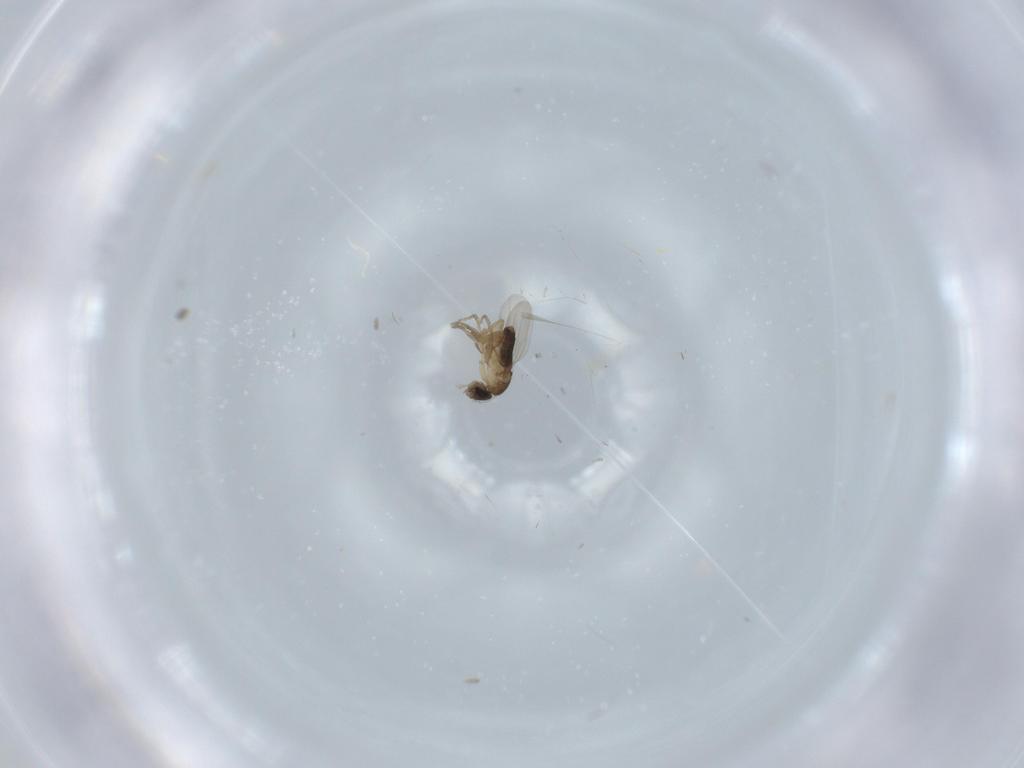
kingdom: Animalia
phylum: Arthropoda
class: Insecta
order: Diptera
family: Phoridae
